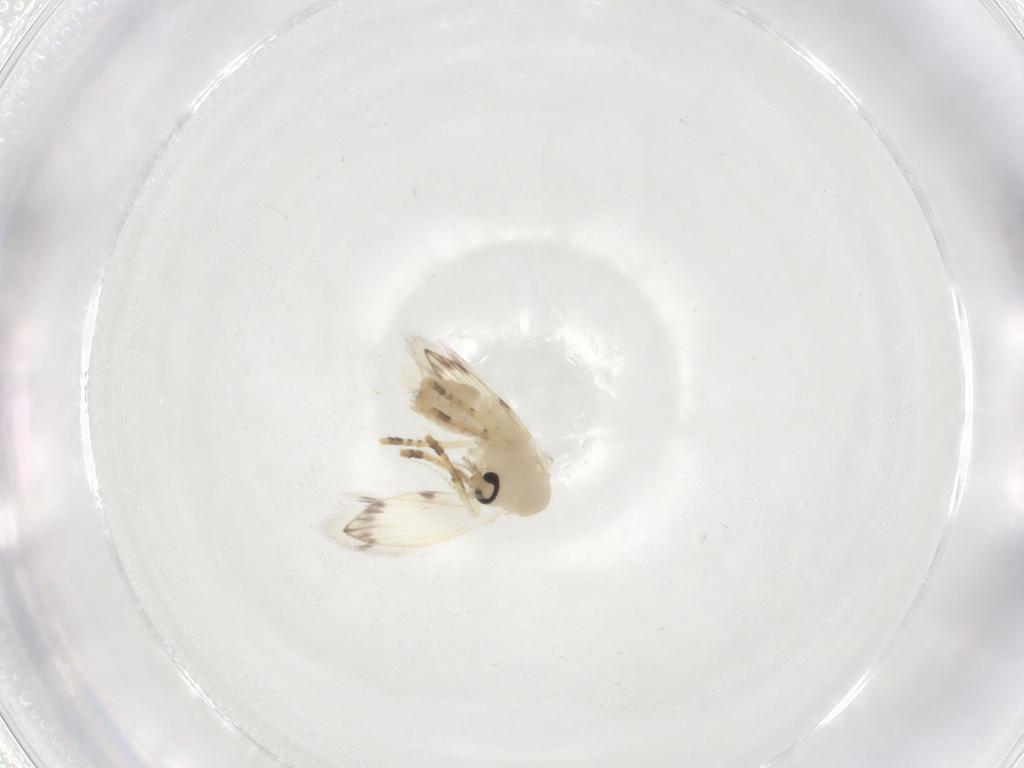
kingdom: Animalia
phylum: Arthropoda
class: Insecta
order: Diptera
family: Psychodidae
